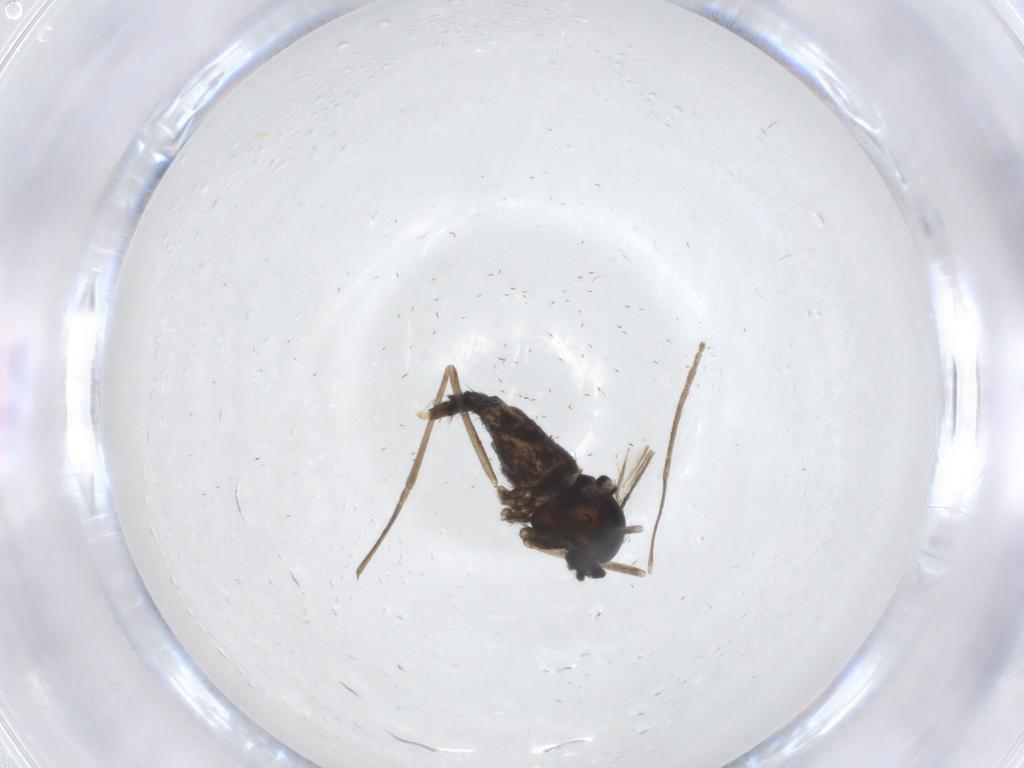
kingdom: Animalia
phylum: Arthropoda
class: Insecta
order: Diptera
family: Cecidomyiidae
